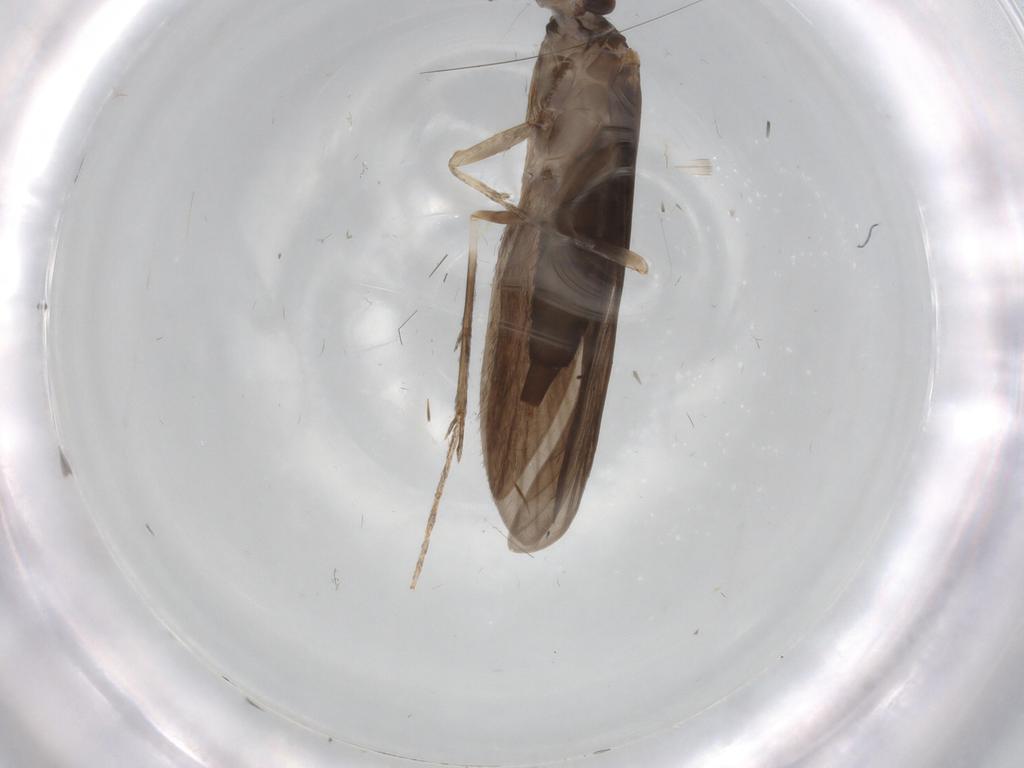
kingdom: Animalia
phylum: Arthropoda
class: Insecta
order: Trichoptera
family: Xiphocentronidae
